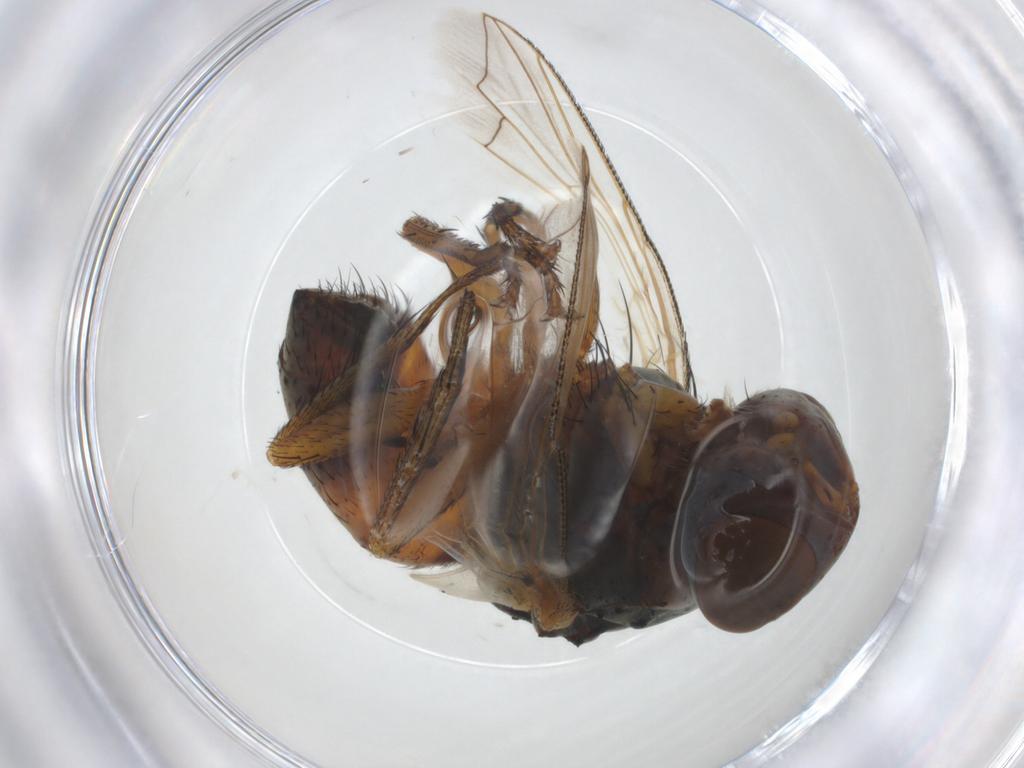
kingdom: Animalia
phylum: Arthropoda
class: Insecta
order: Diptera
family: Sarcophagidae
